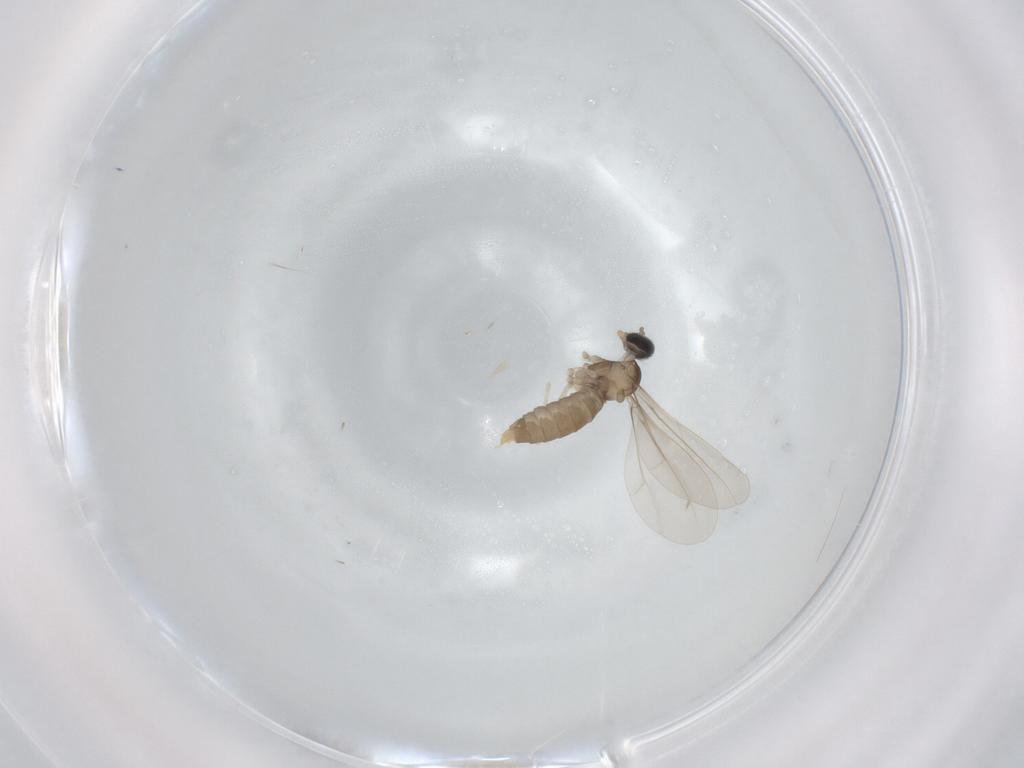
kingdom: Animalia
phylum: Arthropoda
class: Insecta
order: Diptera
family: Cecidomyiidae
